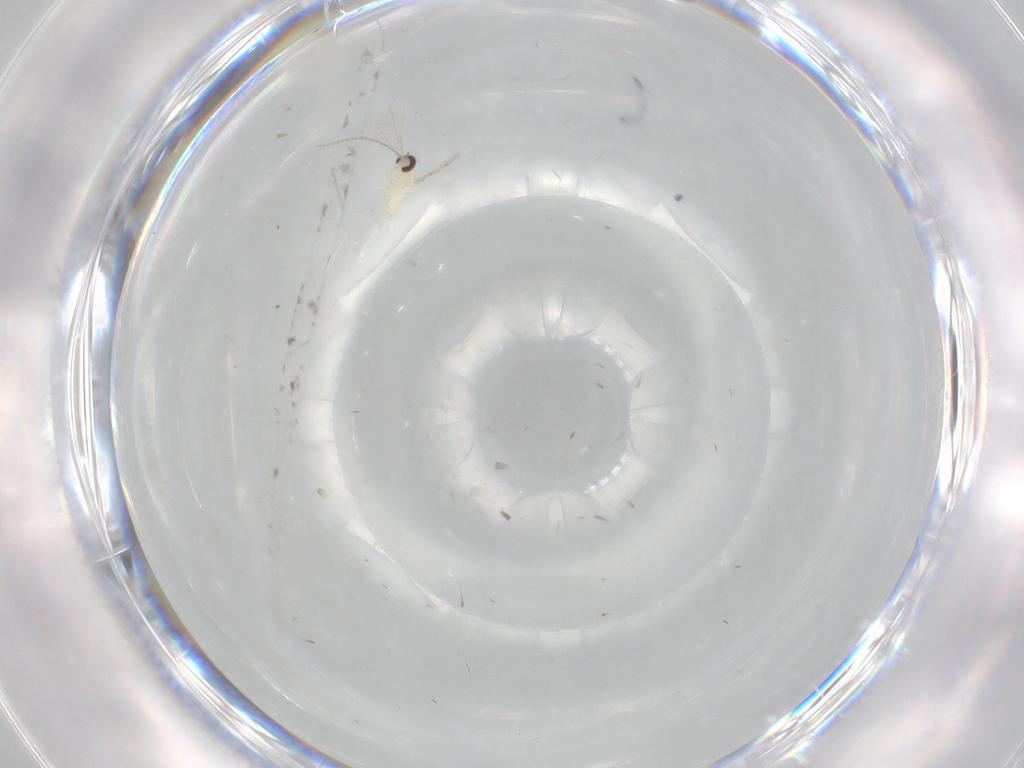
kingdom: Animalia
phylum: Arthropoda
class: Insecta
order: Diptera
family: Cecidomyiidae
